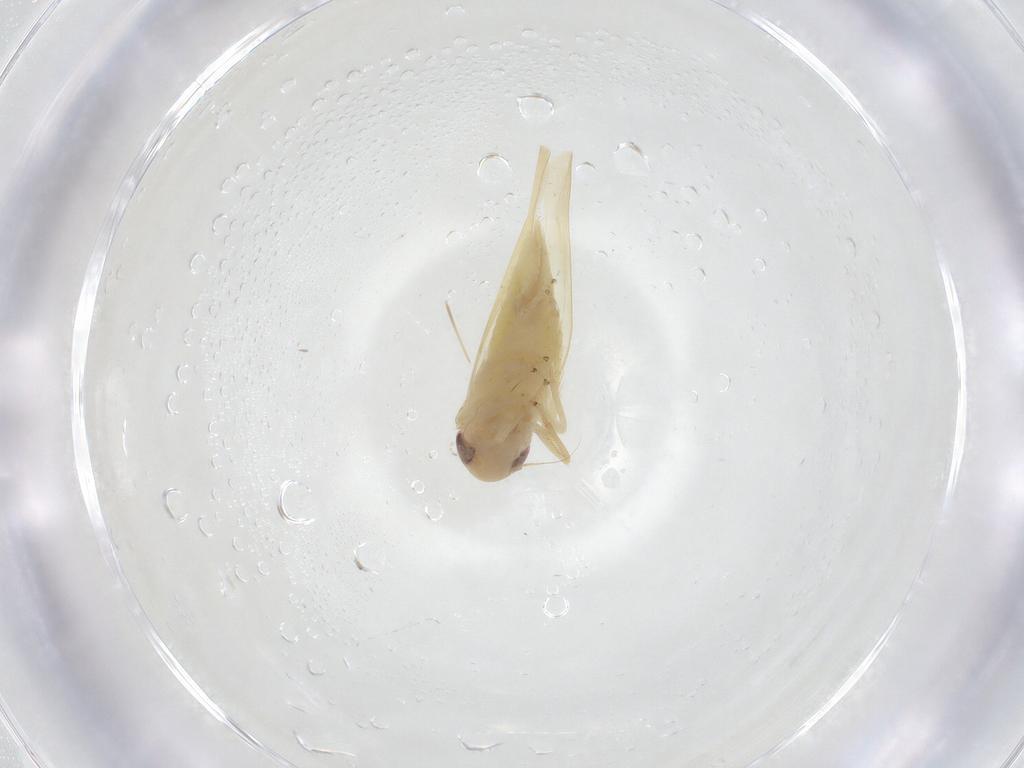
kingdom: Animalia
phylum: Arthropoda
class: Insecta
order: Hemiptera
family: Cicadellidae
